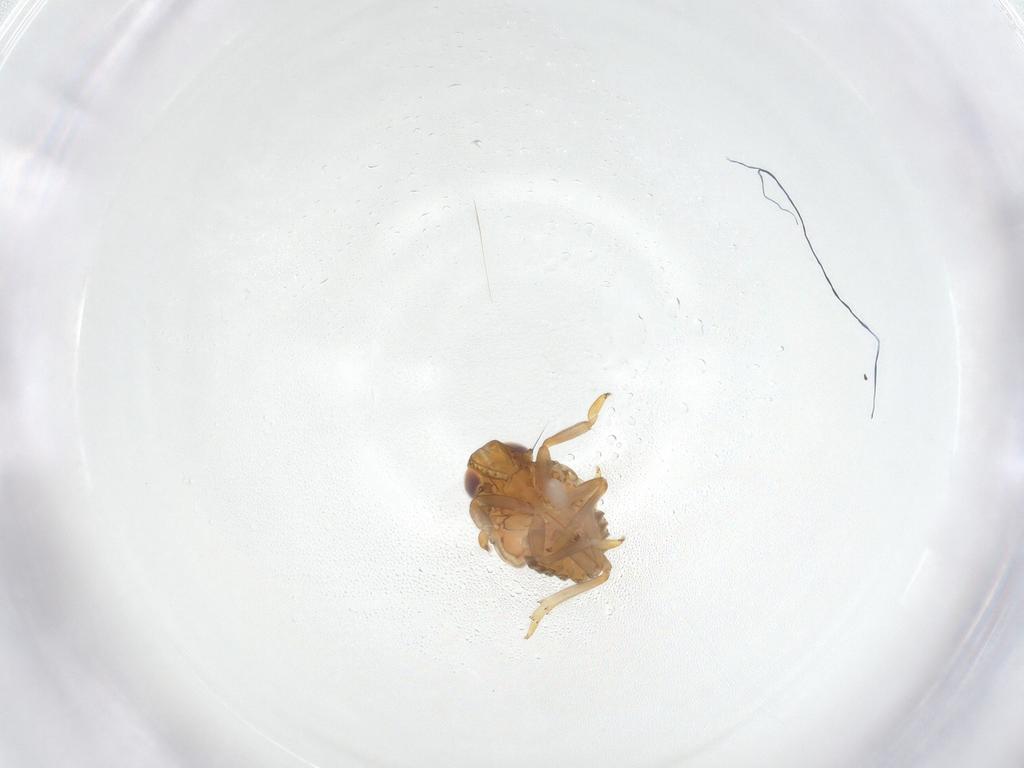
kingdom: Animalia
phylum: Arthropoda
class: Insecta
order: Hemiptera
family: Issidae
